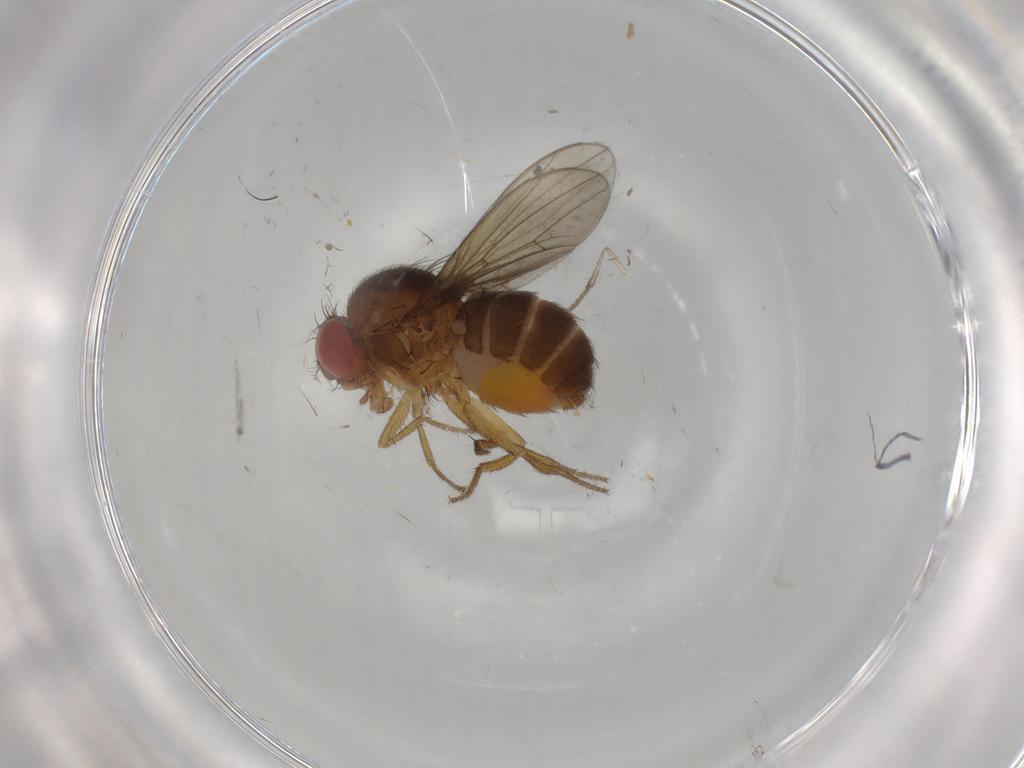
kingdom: Animalia
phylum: Arthropoda
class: Insecta
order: Diptera
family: Drosophilidae
